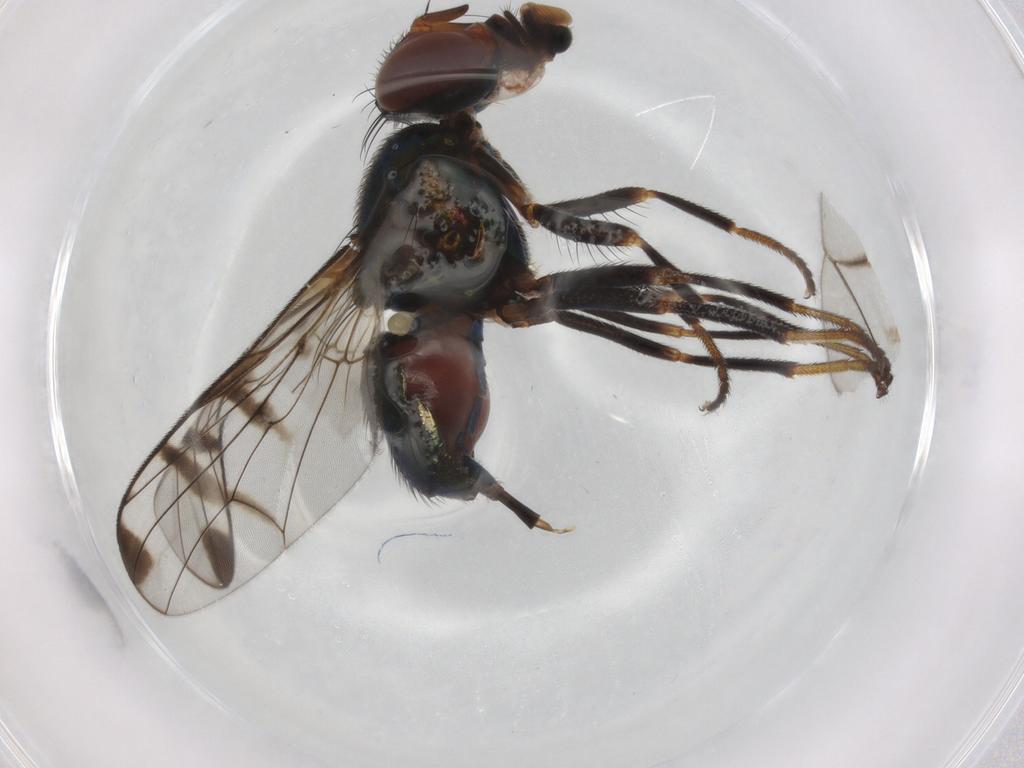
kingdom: Animalia
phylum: Arthropoda
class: Insecta
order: Diptera
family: Platystomatidae
